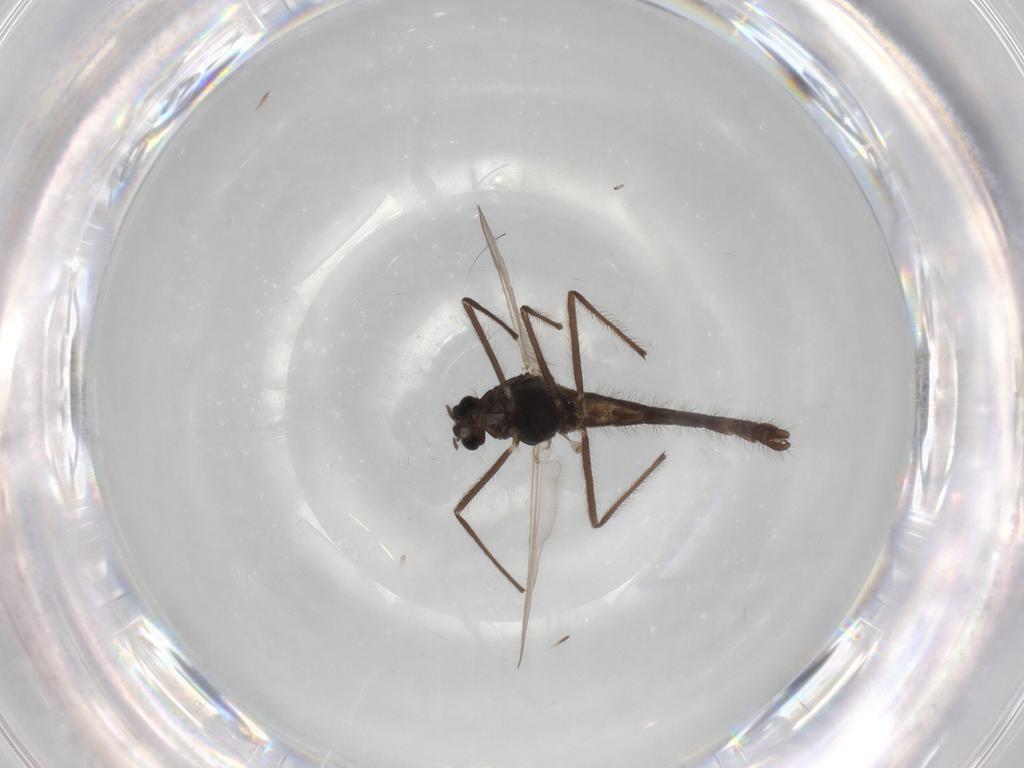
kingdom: Animalia
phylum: Arthropoda
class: Insecta
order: Diptera
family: Chironomidae
